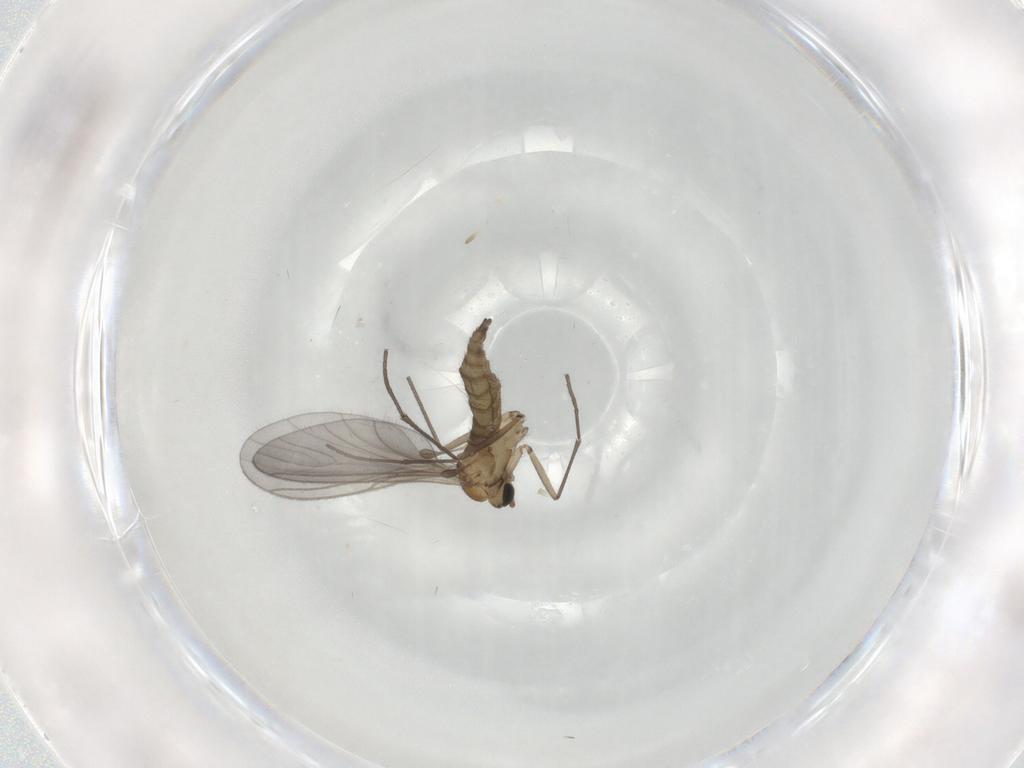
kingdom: Animalia
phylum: Arthropoda
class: Insecta
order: Diptera
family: Sciaridae
